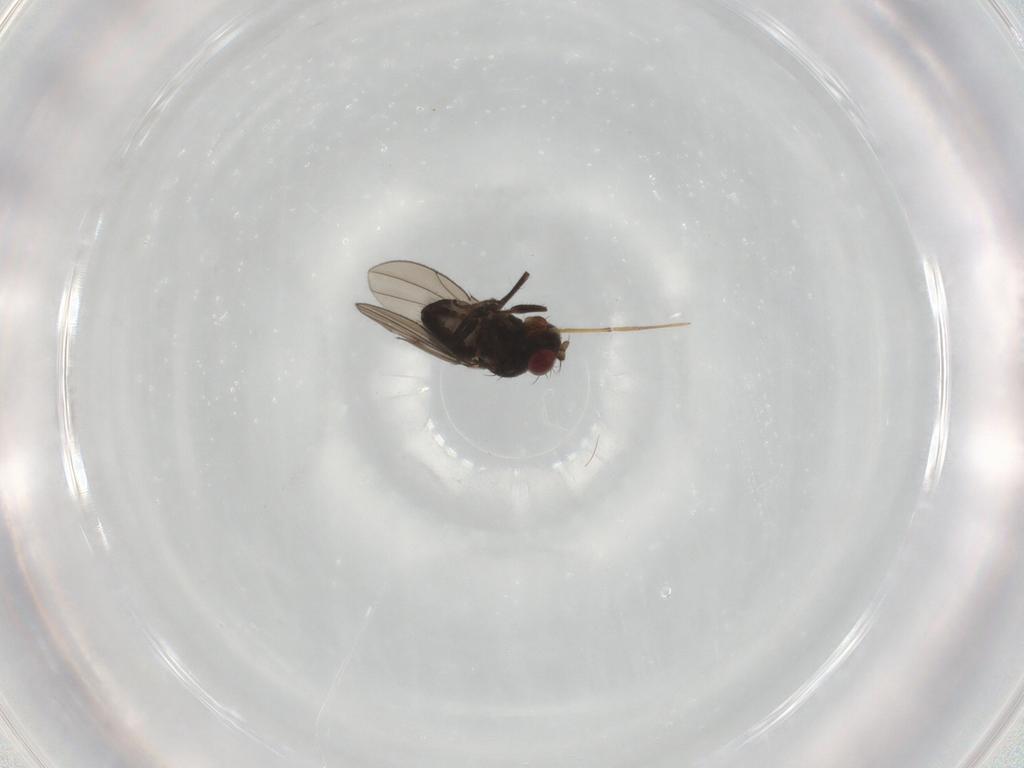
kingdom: Animalia
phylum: Arthropoda
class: Insecta
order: Diptera
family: Ephydridae
